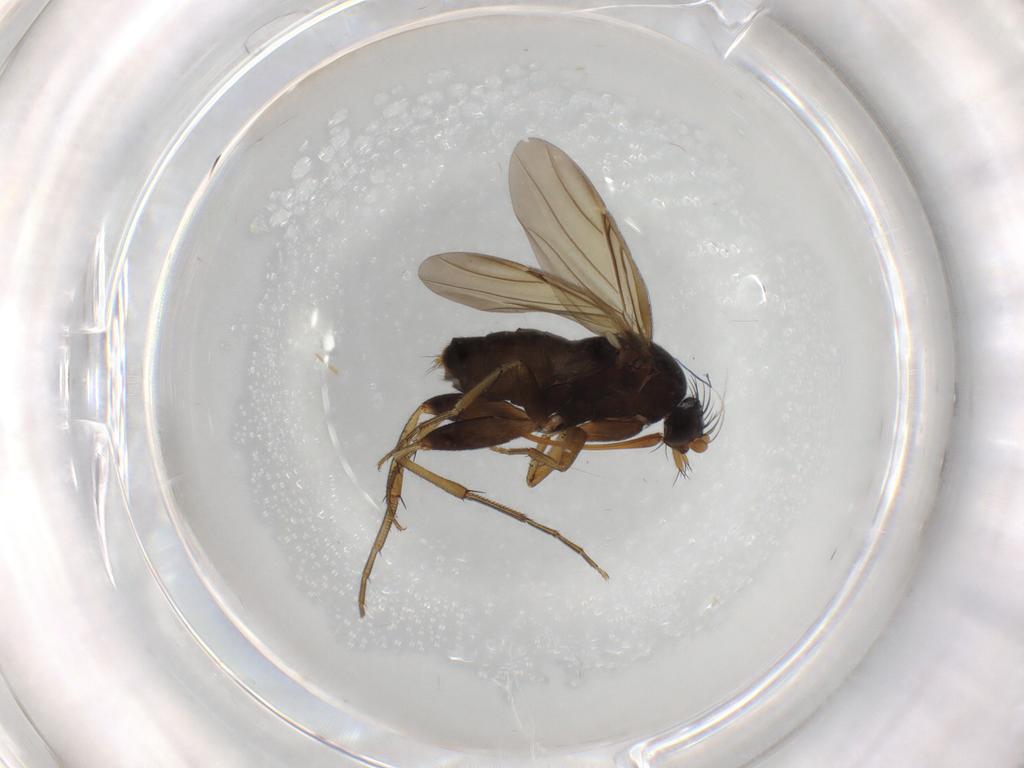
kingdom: Animalia
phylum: Arthropoda
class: Insecta
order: Diptera
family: Phoridae
